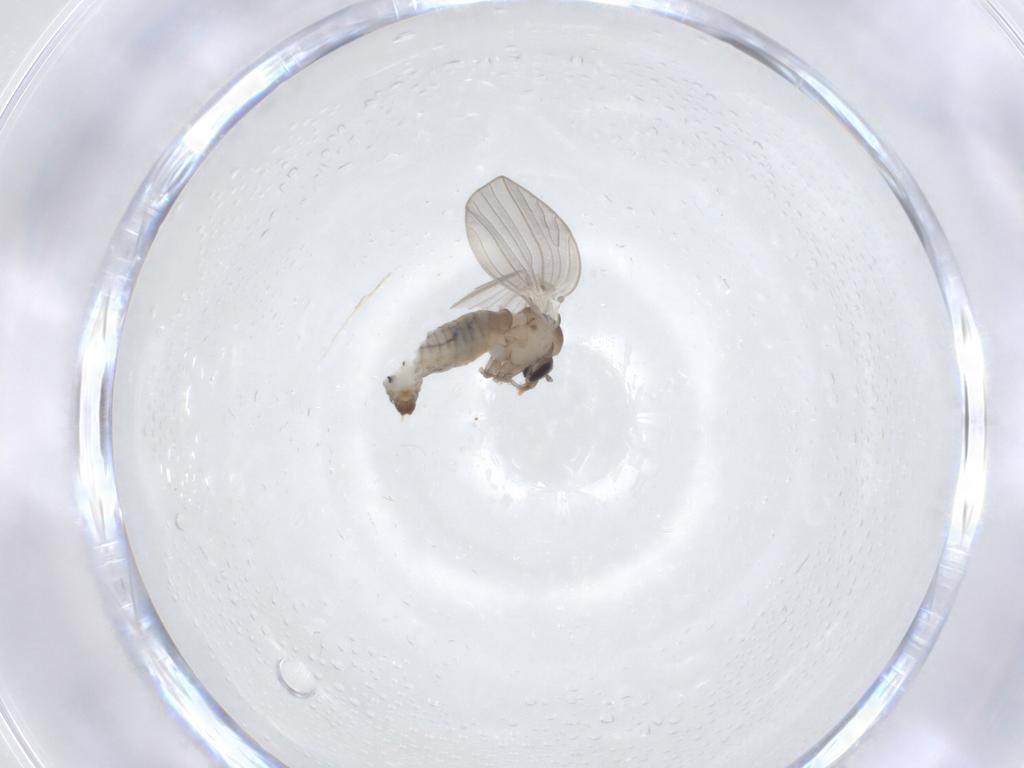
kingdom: Animalia
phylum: Arthropoda
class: Insecta
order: Diptera
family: Psychodidae
